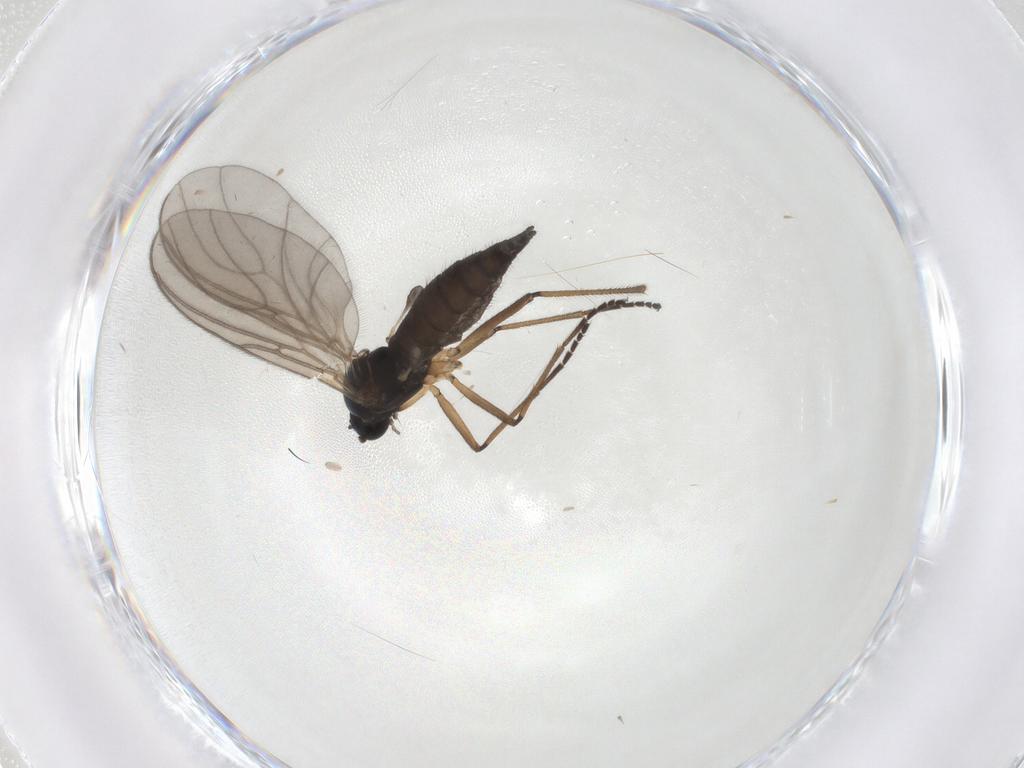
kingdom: Animalia
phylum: Arthropoda
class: Insecta
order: Diptera
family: Sciaridae
